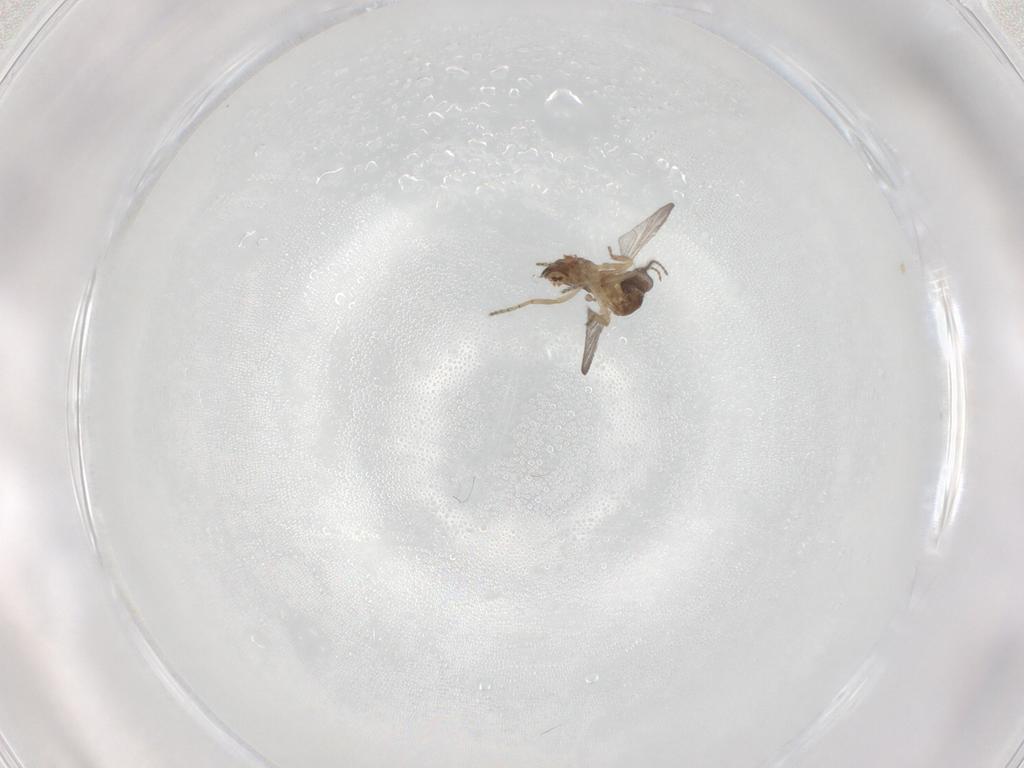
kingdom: Animalia
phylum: Arthropoda
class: Insecta
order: Diptera
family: Ceratopogonidae
